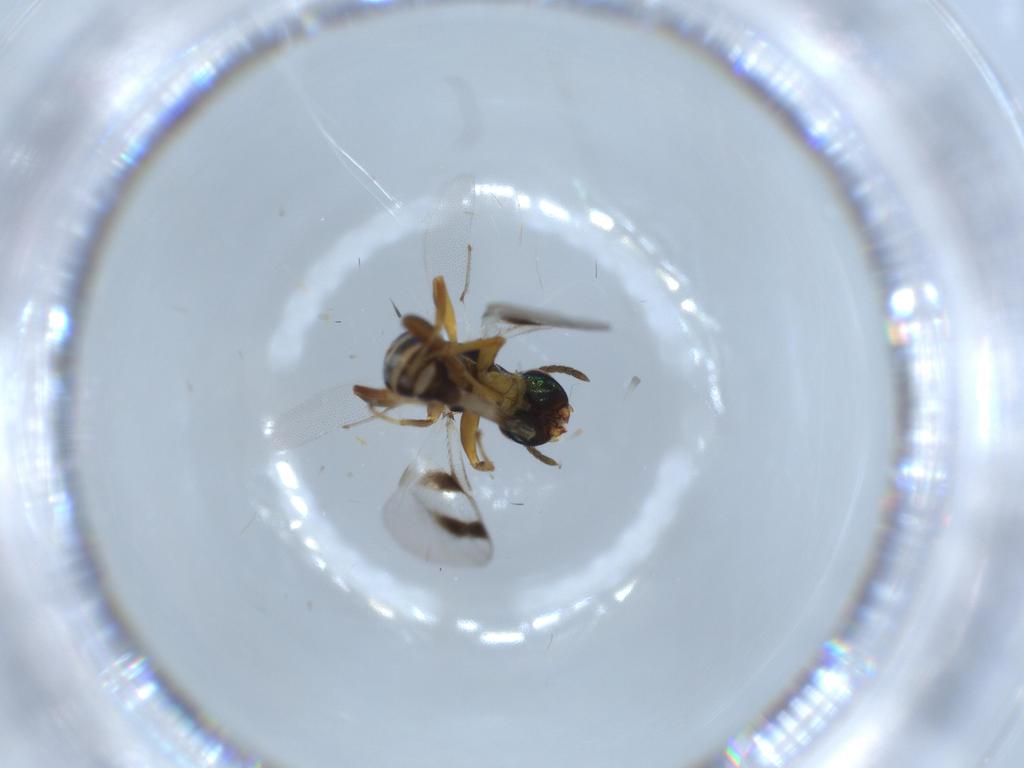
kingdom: Animalia
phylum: Arthropoda
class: Insecta
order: Hymenoptera
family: Pteromalidae
